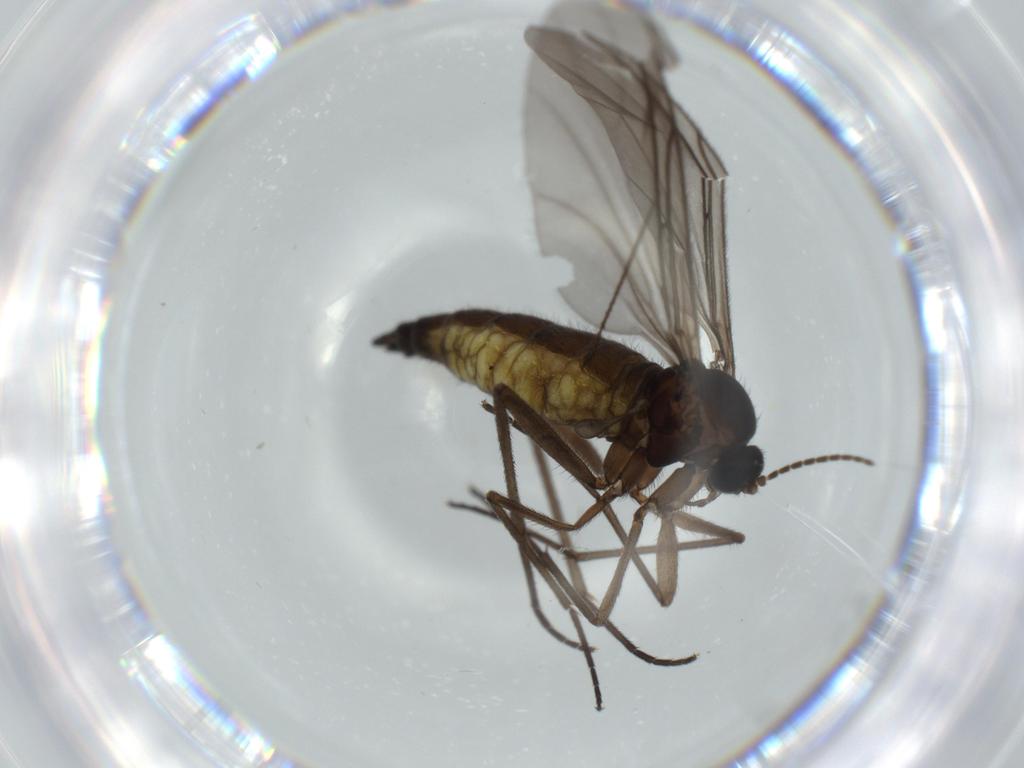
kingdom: Animalia
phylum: Arthropoda
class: Insecta
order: Diptera
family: Sciaridae
